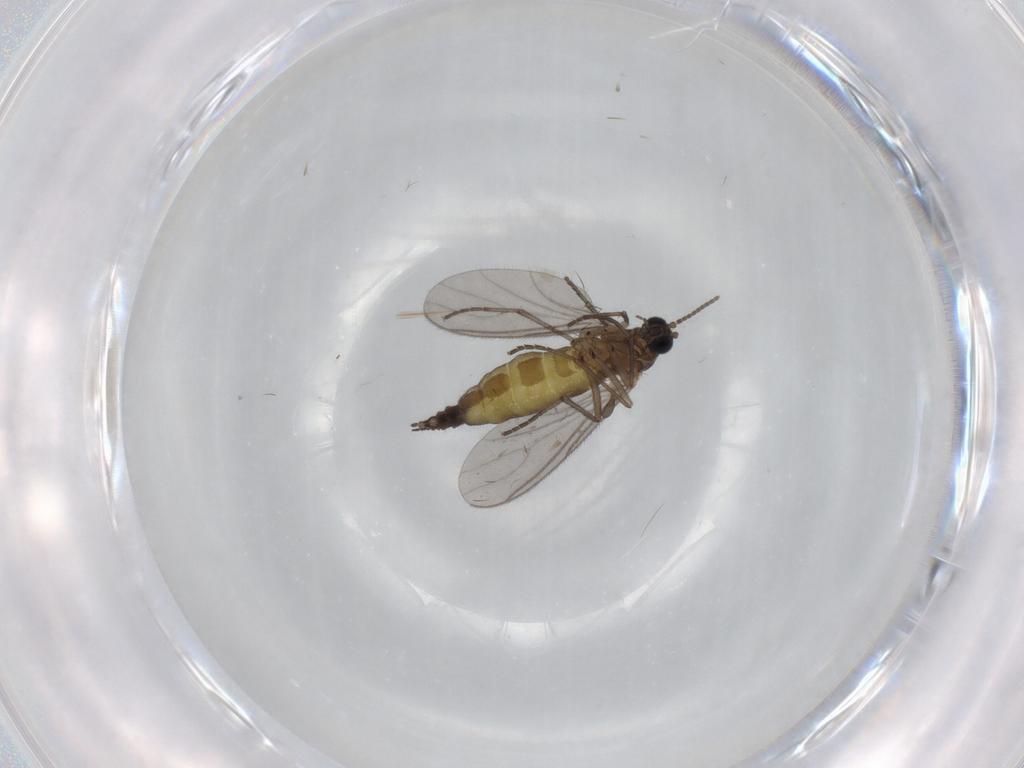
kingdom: Animalia
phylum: Arthropoda
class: Insecta
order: Diptera
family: Sciaridae
